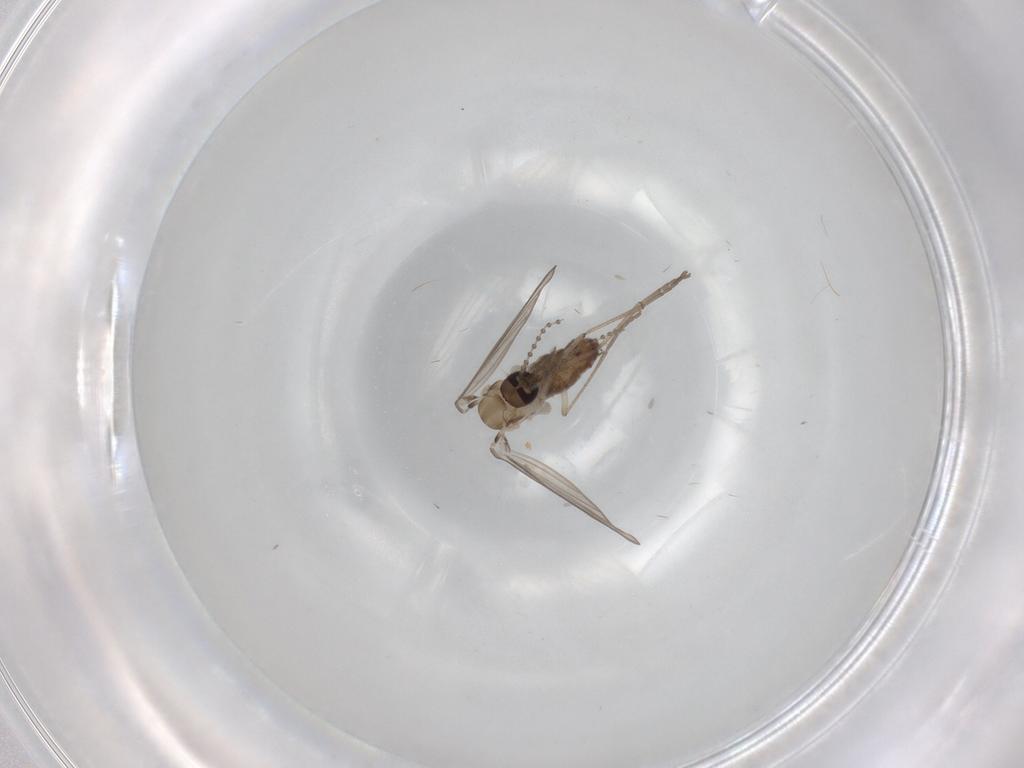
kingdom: Animalia
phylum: Arthropoda
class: Insecta
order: Diptera
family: Psychodidae
